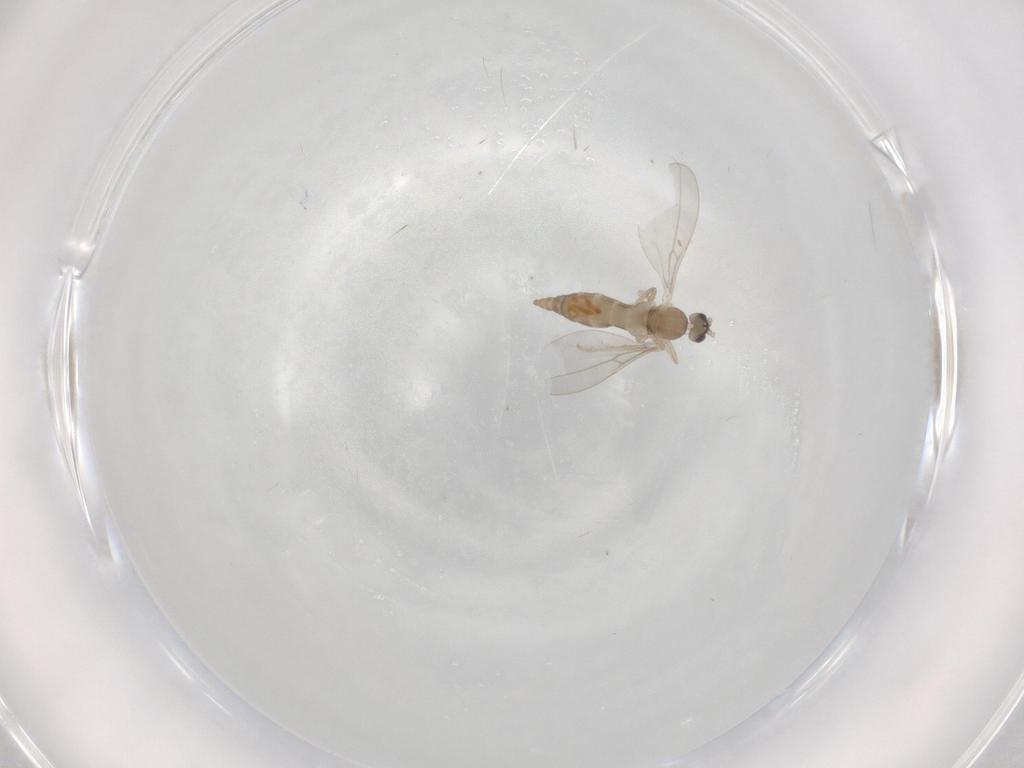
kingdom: Animalia
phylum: Arthropoda
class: Insecta
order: Diptera
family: Cecidomyiidae
